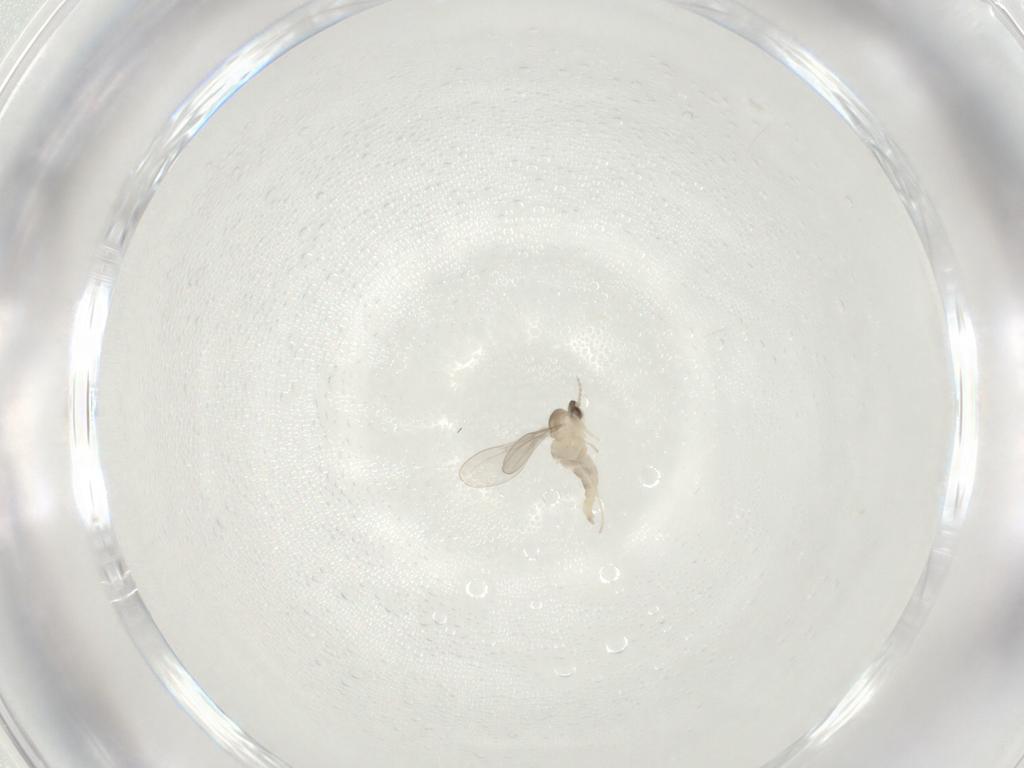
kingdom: Animalia
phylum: Arthropoda
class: Insecta
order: Diptera
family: Cecidomyiidae
